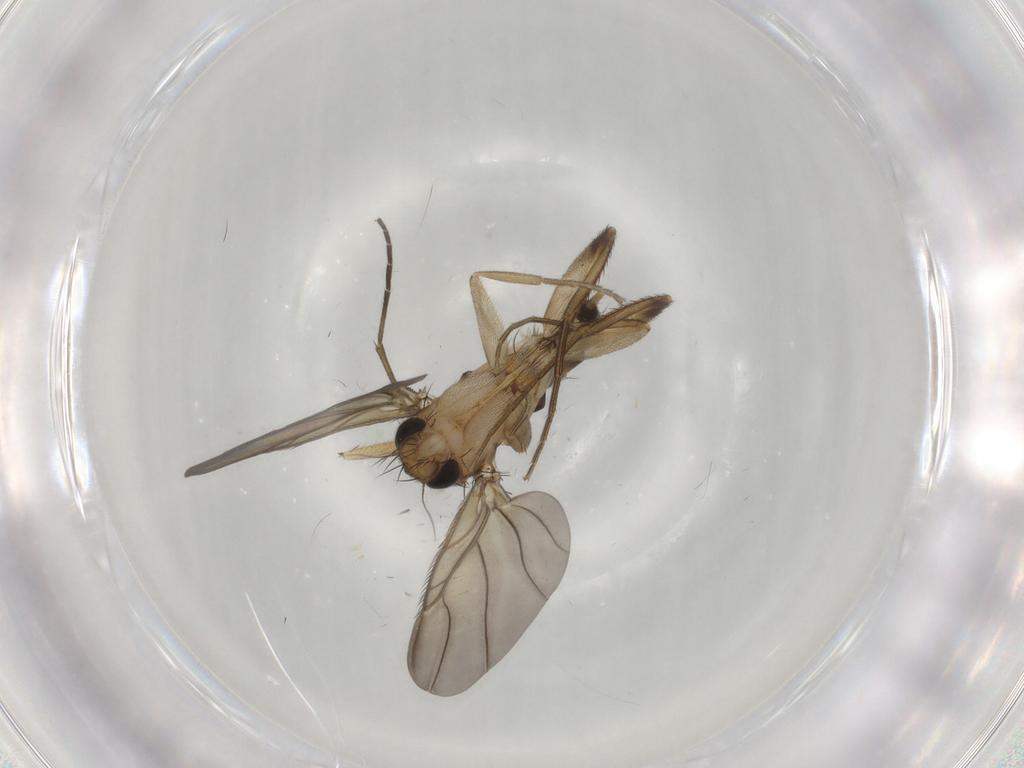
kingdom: Animalia
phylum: Arthropoda
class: Insecta
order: Diptera
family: Phoridae
